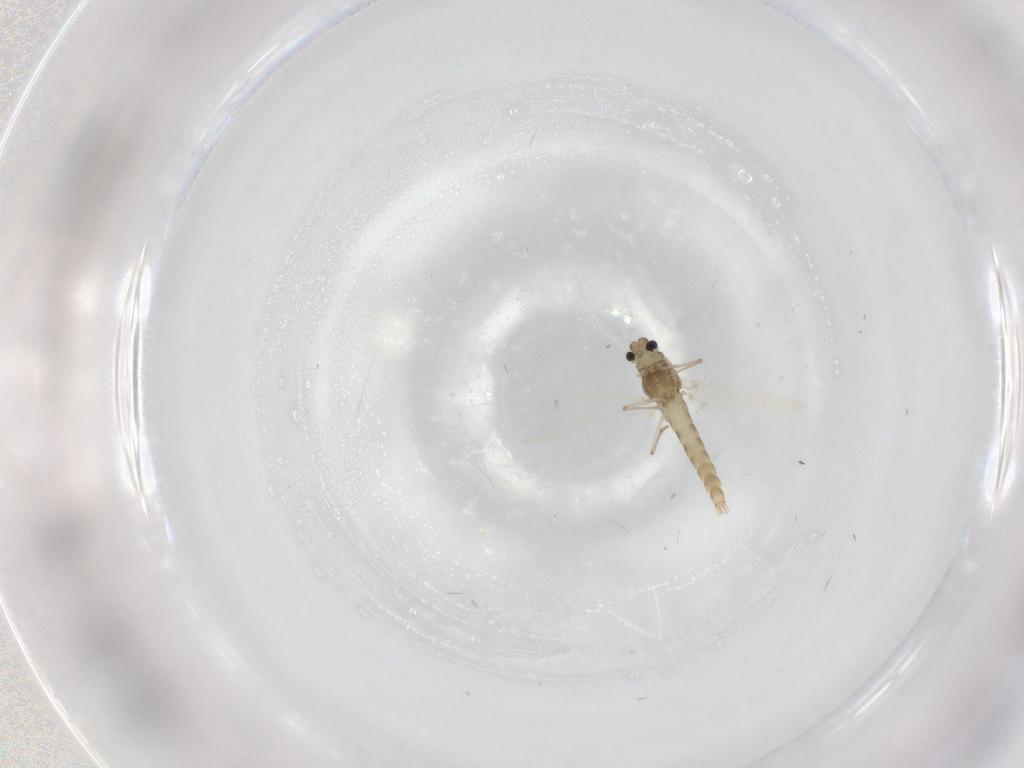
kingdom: Animalia
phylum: Arthropoda
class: Insecta
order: Diptera
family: Chironomidae
